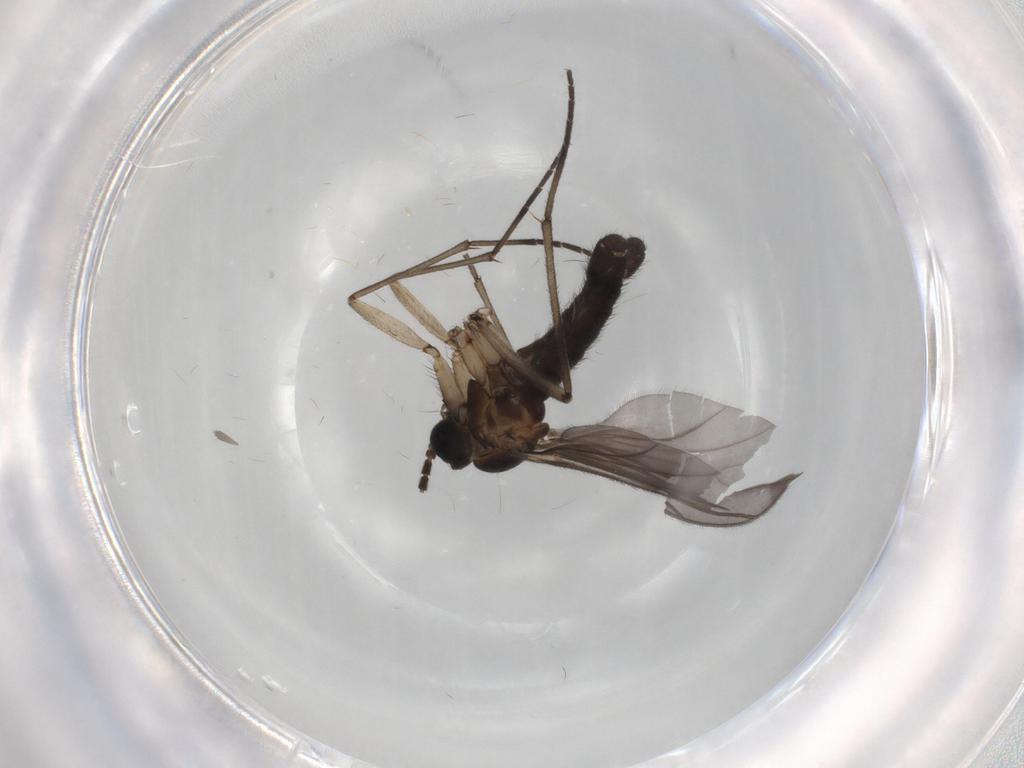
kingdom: Animalia
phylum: Arthropoda
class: Insecta
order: Diptera
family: Sciaridae
